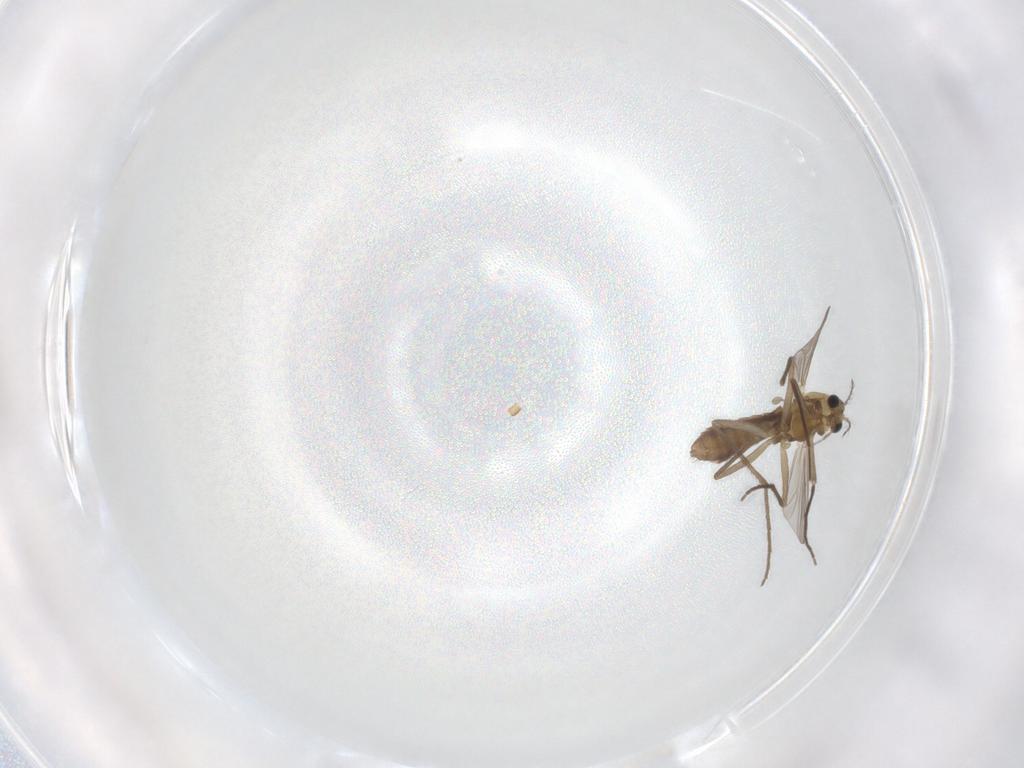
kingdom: Animalia
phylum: Arthropoda
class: Insecta
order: Diptera
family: Chironomidae
